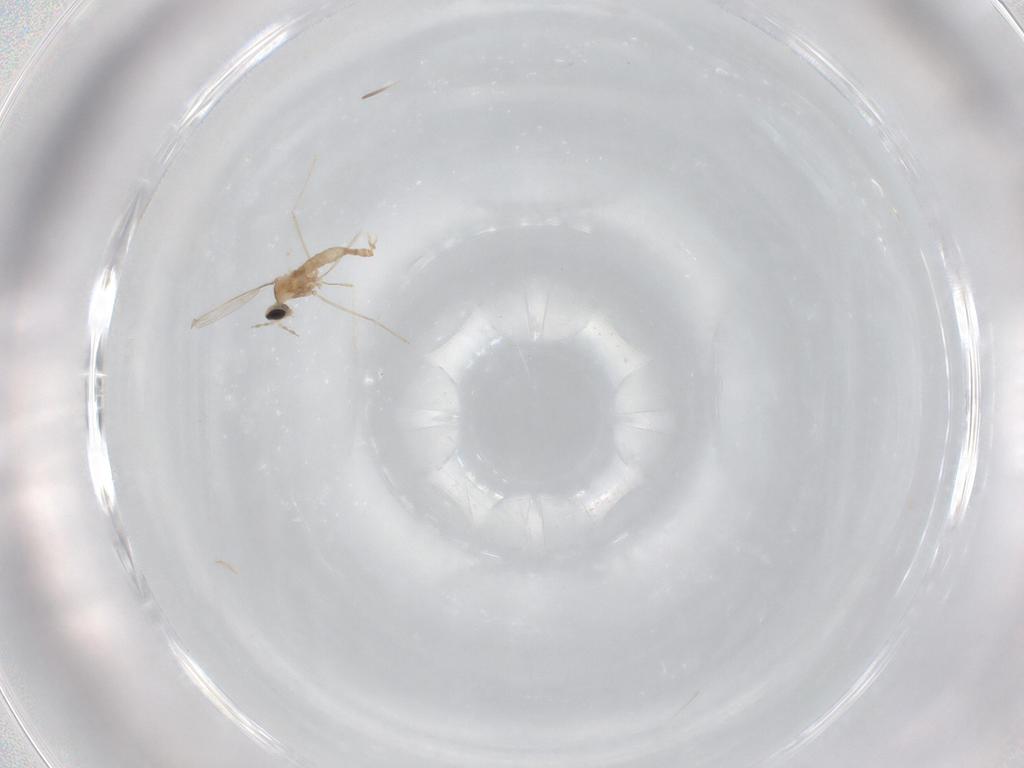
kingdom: Animalia
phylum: Arthropoda
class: Insecta
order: Diptera
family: Cecidomyiidae
